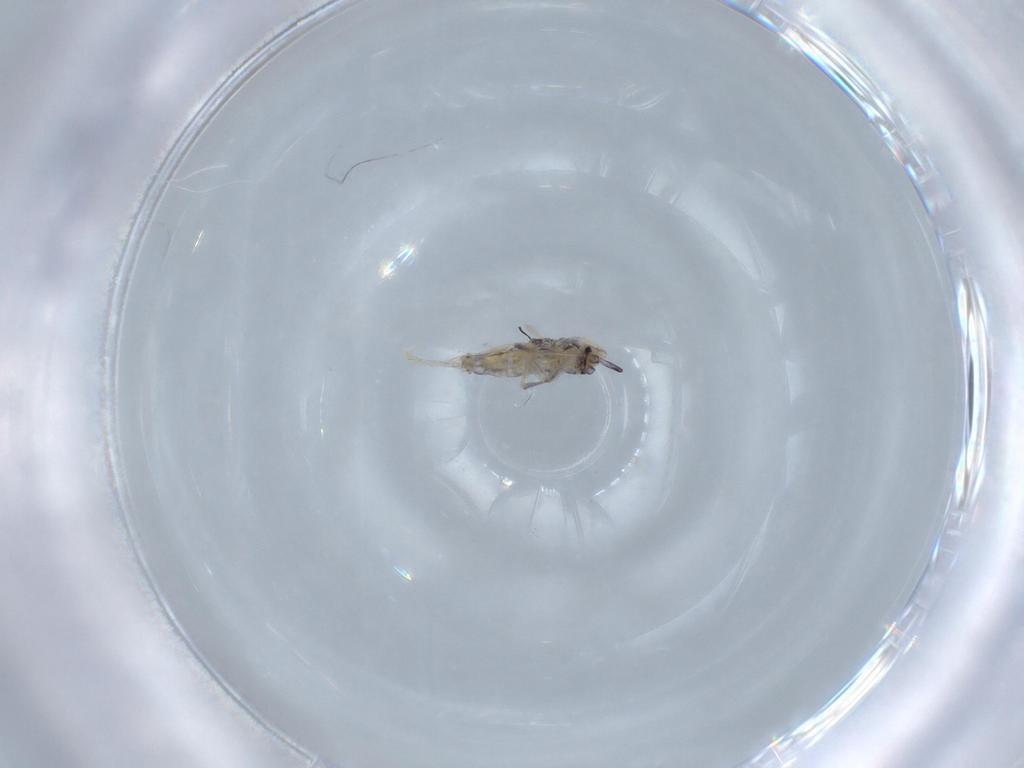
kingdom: Animalia
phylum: Arthropoda
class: Collembola
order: Poduromorpha
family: Hypogastruridae
